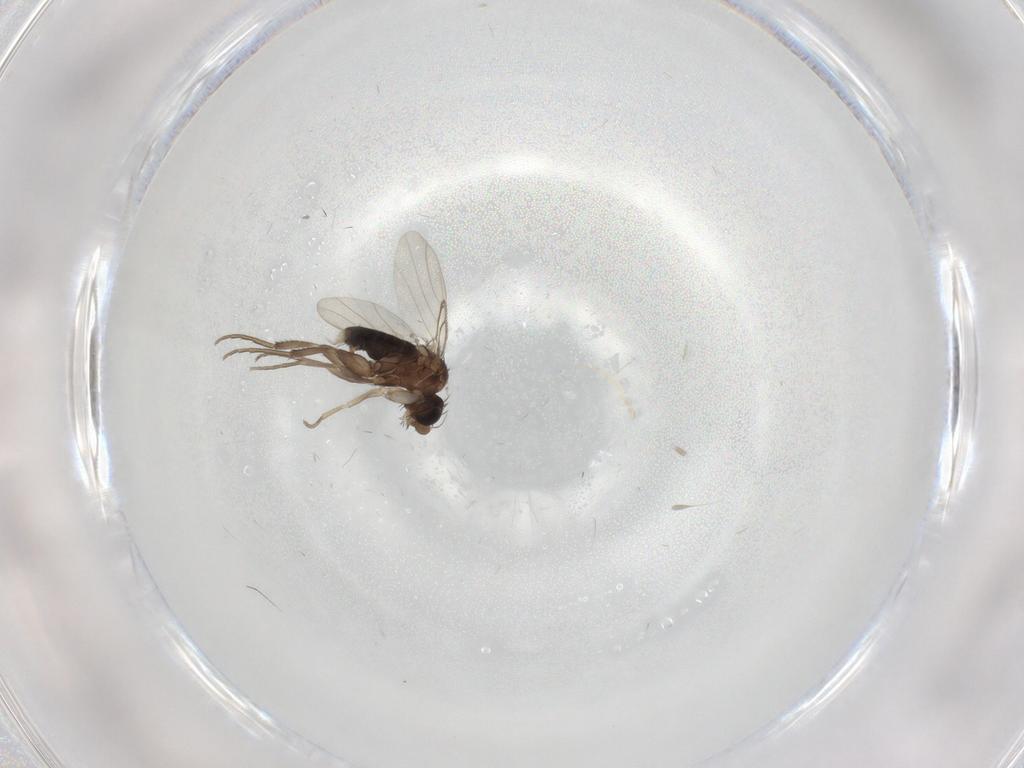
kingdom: Animalia
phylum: Arthropoda
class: Insecta
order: Diptera
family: Phoridae
